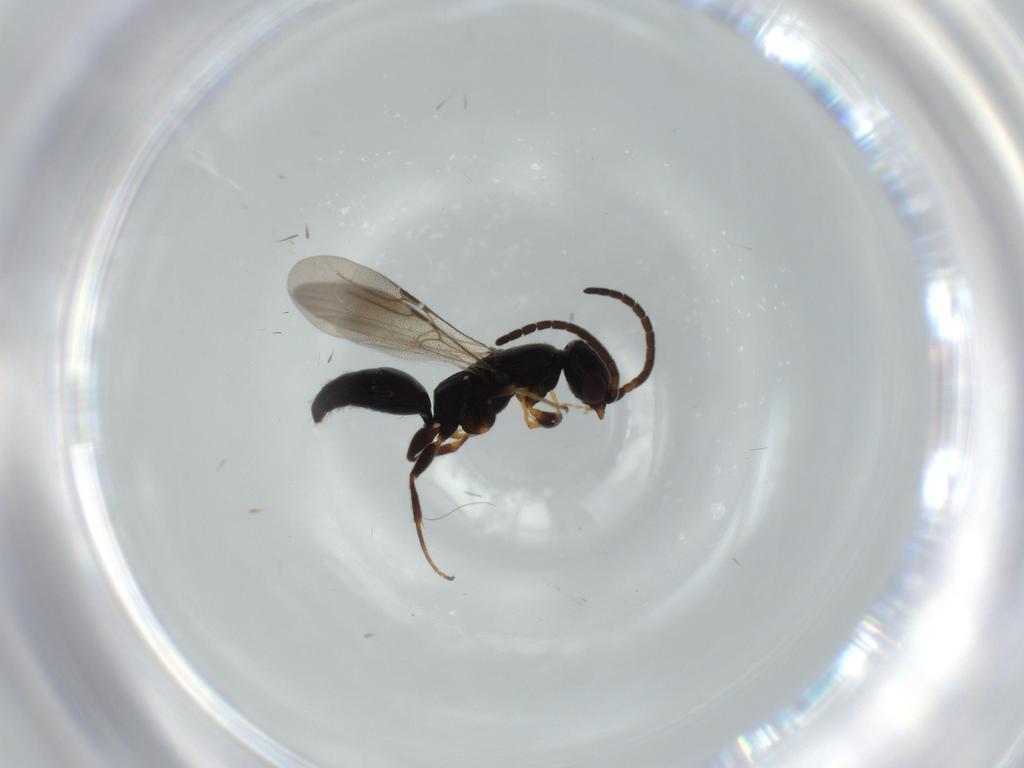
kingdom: Animalia
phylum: Arthropoda
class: Insecta
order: Hymenoptera
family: Bethylidae
